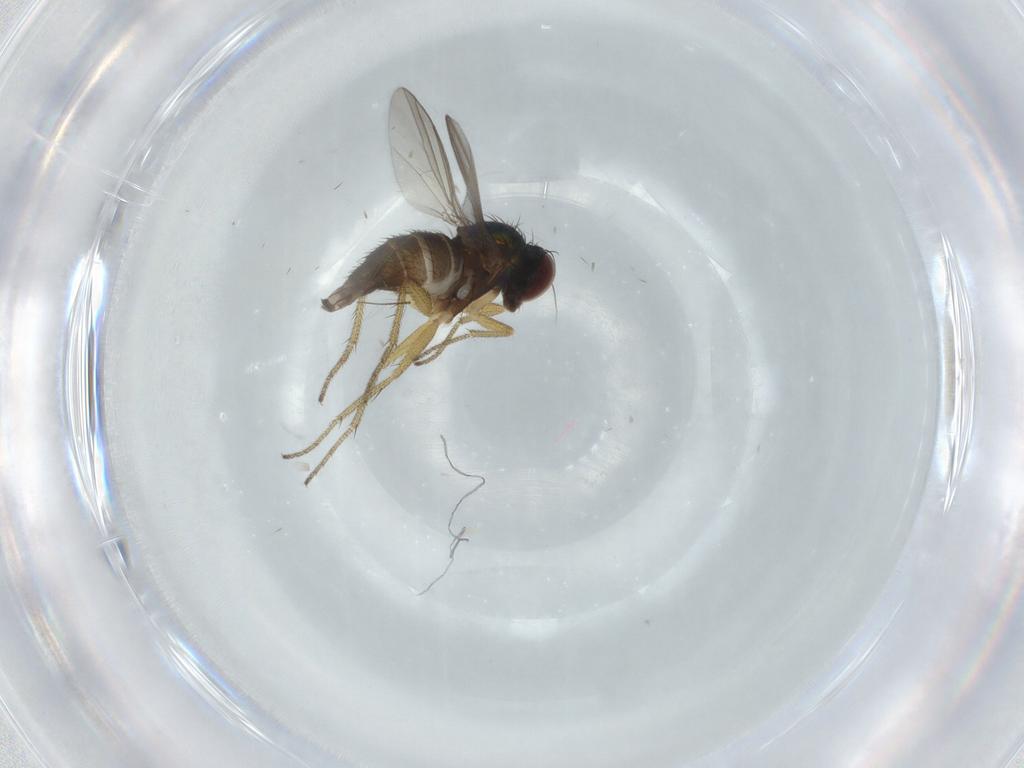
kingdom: Animalia
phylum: Arthropoda
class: Insecta
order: Diptera
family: Dolichopodidae
